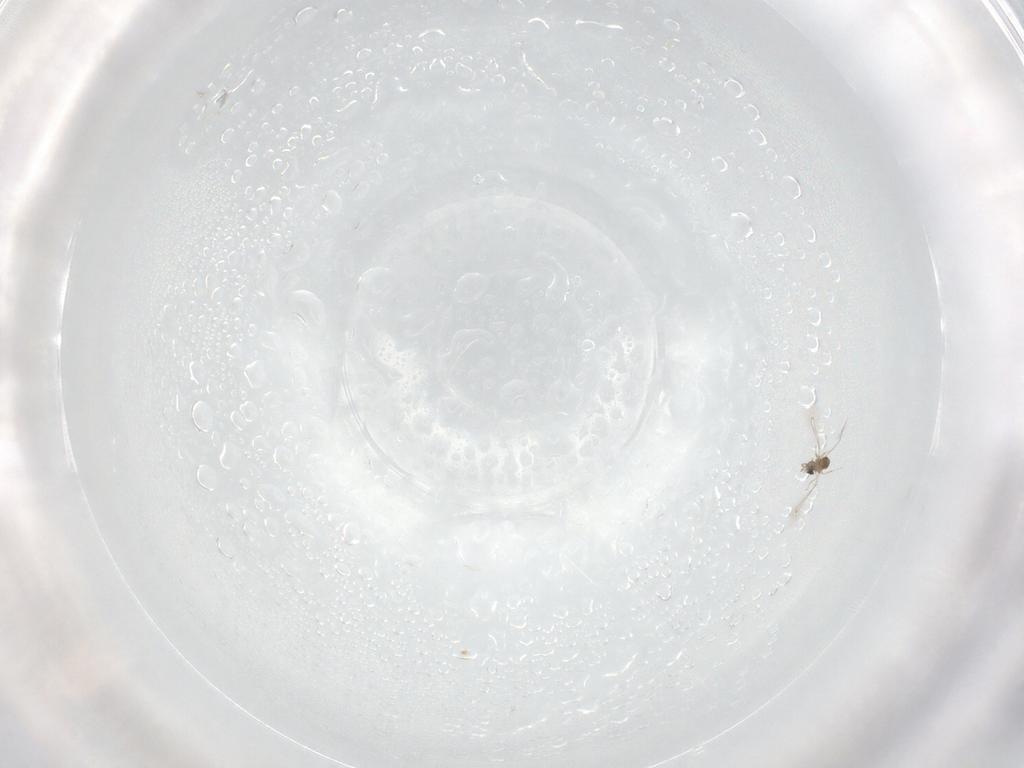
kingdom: Animalia
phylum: Arthropoda
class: Insecta
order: Hymenoptera
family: Epichrysomallidae
